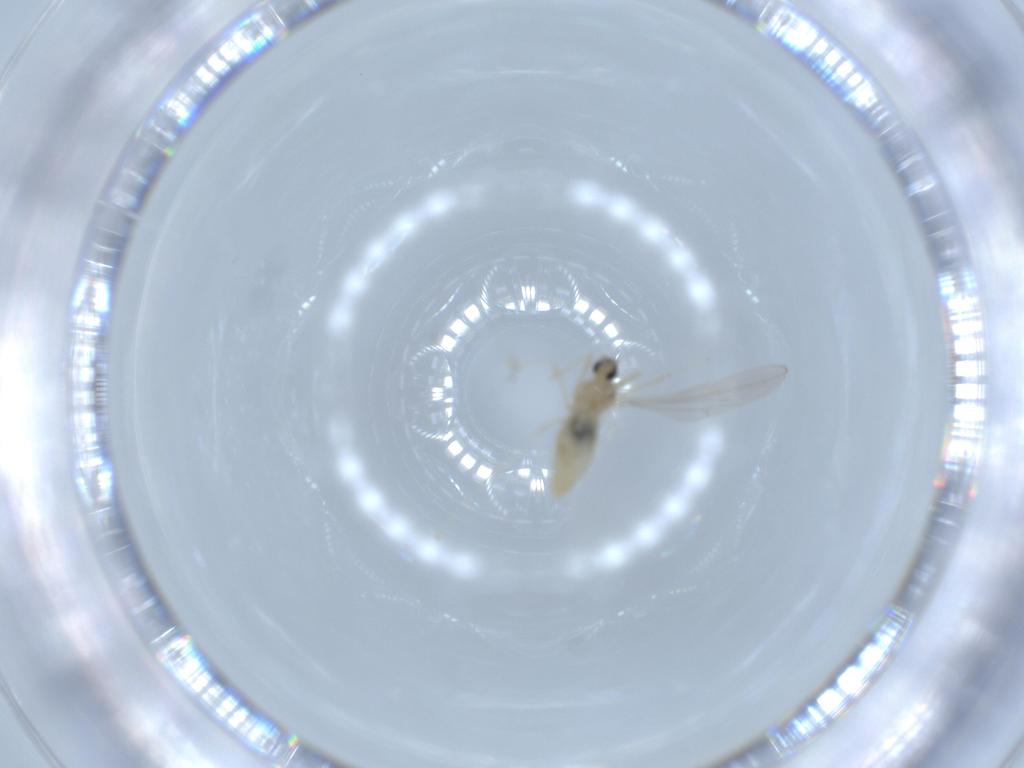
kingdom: Animalia
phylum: Arthropoda
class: Insecta
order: Diptera
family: Cecidomyiidae
